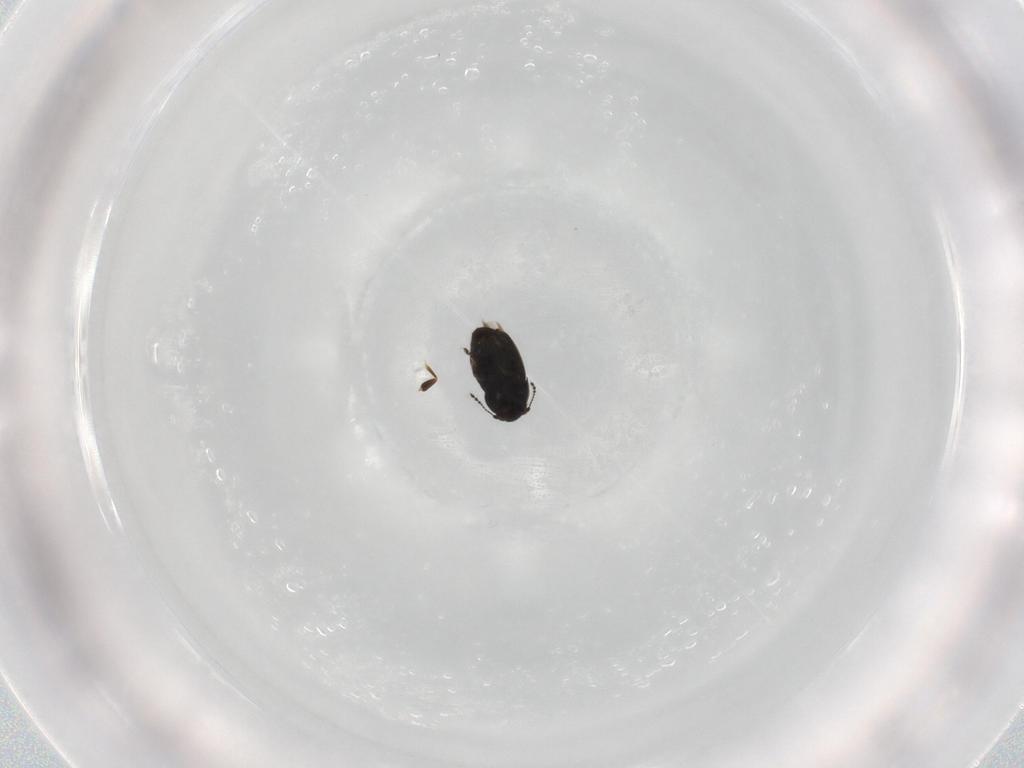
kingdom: Animalia
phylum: Arthropoda
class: Insecta
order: Coleoptera
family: Ptiliidae
